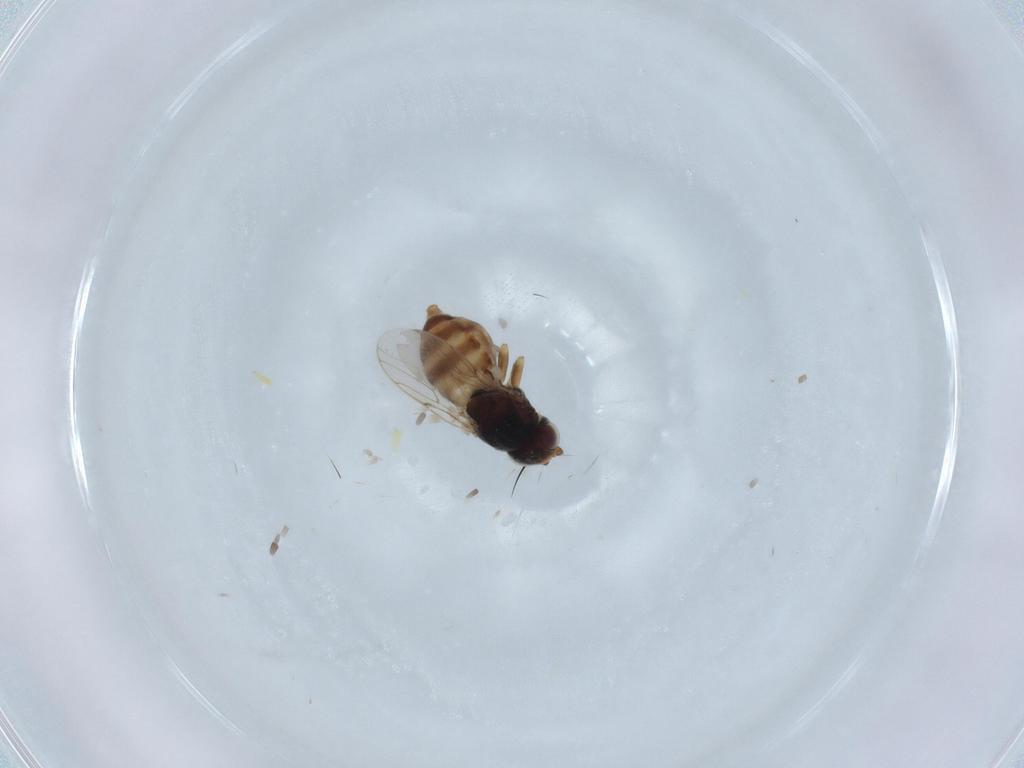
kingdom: Animalia
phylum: Arthropoda
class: Insecta
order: Diptera
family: Chloropidae
